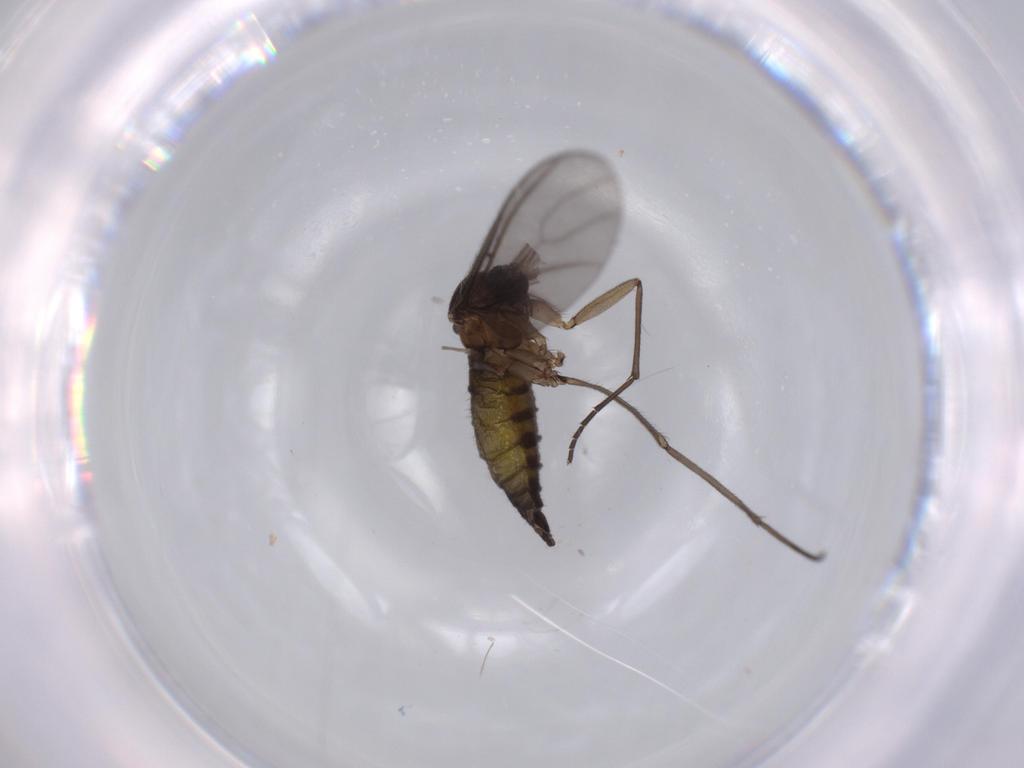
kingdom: Animalia
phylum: Arthropoda
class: Insecta
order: Diptera
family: Sciaridae
